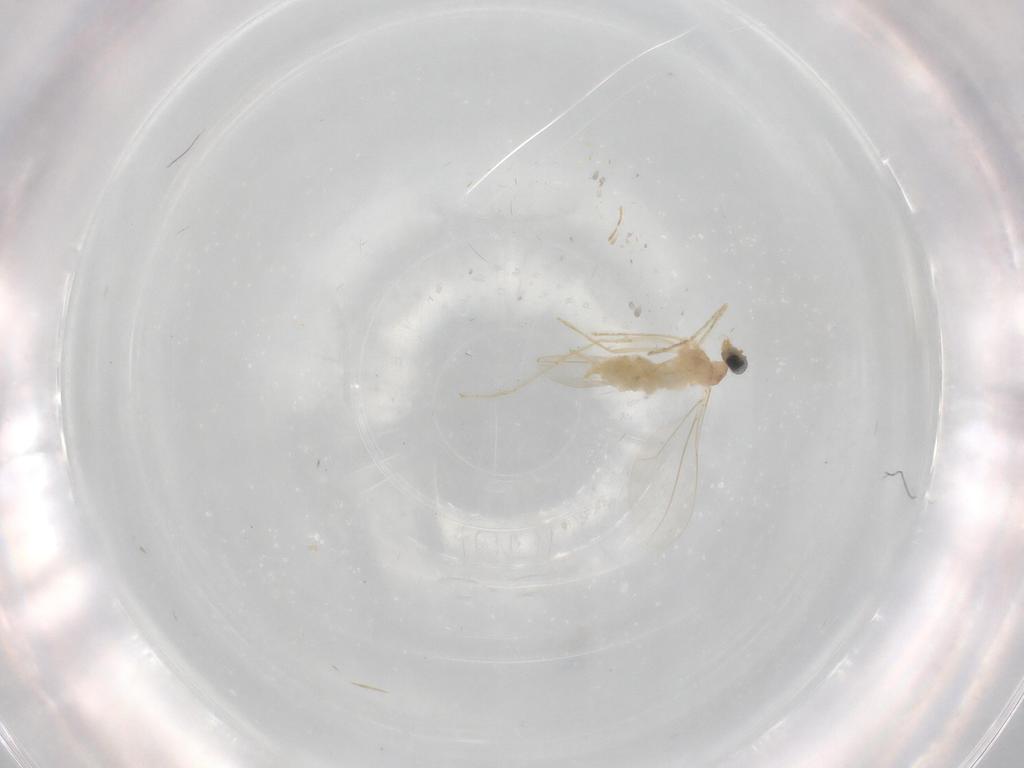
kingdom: Animalia
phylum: Arthropoda
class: Insecta
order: Diptera
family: Cecidomyiidae
